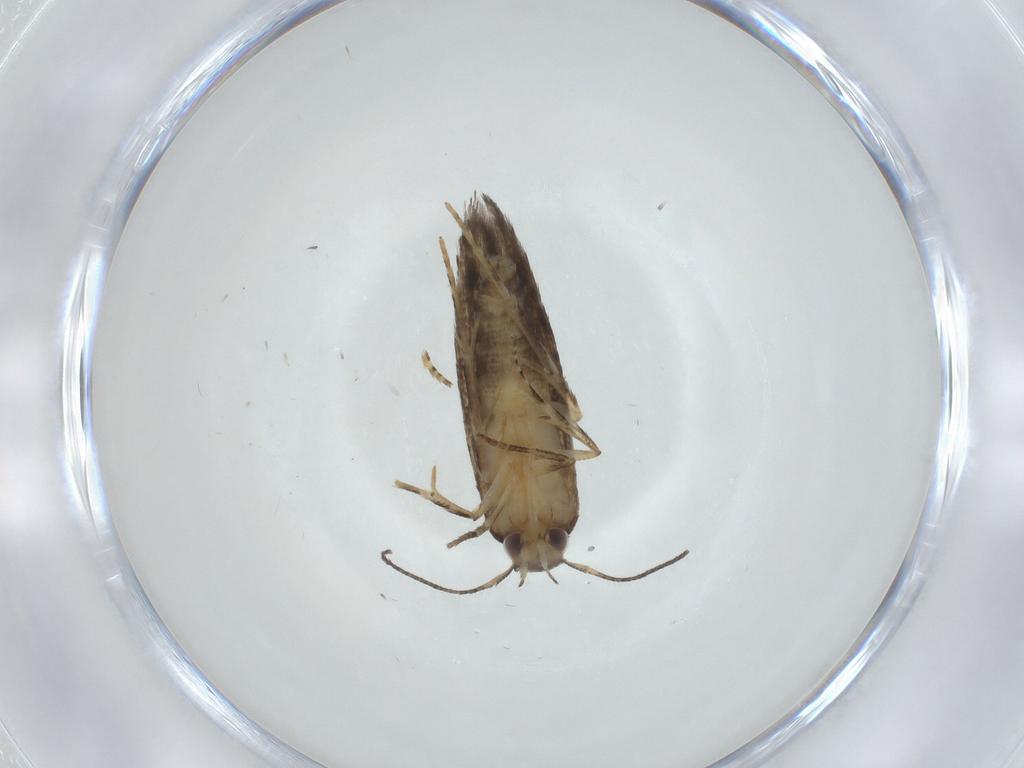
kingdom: Animalia
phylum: Arthropoda
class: Insecta
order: Lepidoptera
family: Elachistidae
